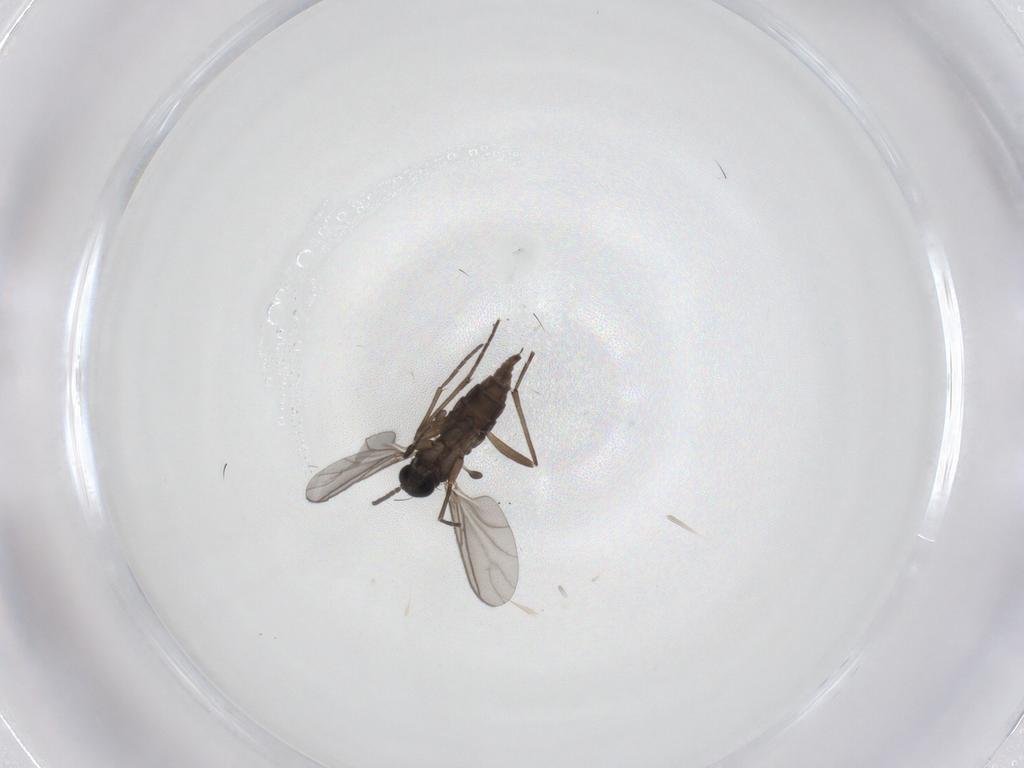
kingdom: Animalia
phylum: Arthropoda
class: Insecta
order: Diptera
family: Sciaridae
